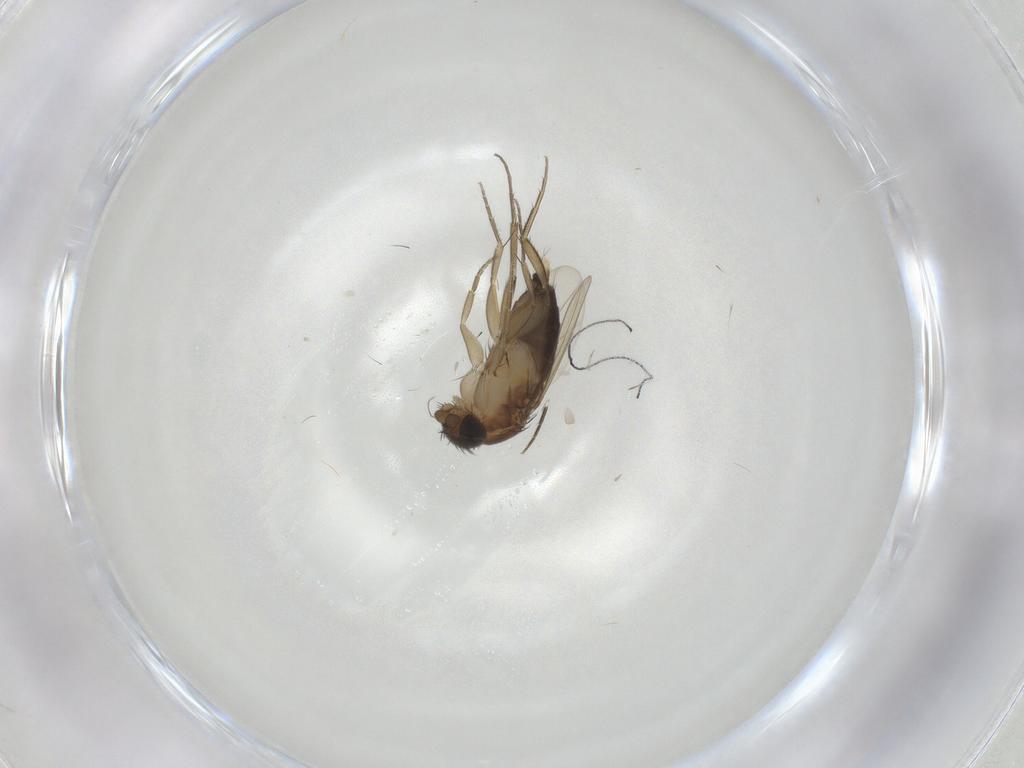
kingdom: Animalia
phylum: Arthropoda
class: Insecta
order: Diptera
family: Phoridae
